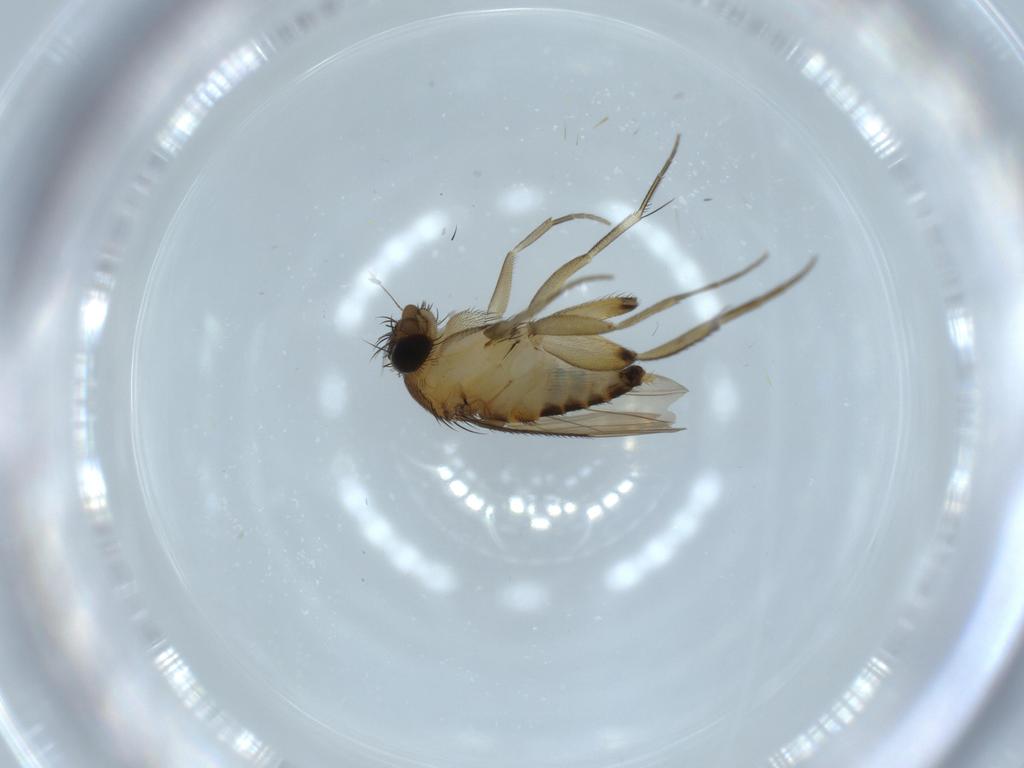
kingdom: Animalia
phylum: Arthropoda
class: Insecta
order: Diptera
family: Phoridae
